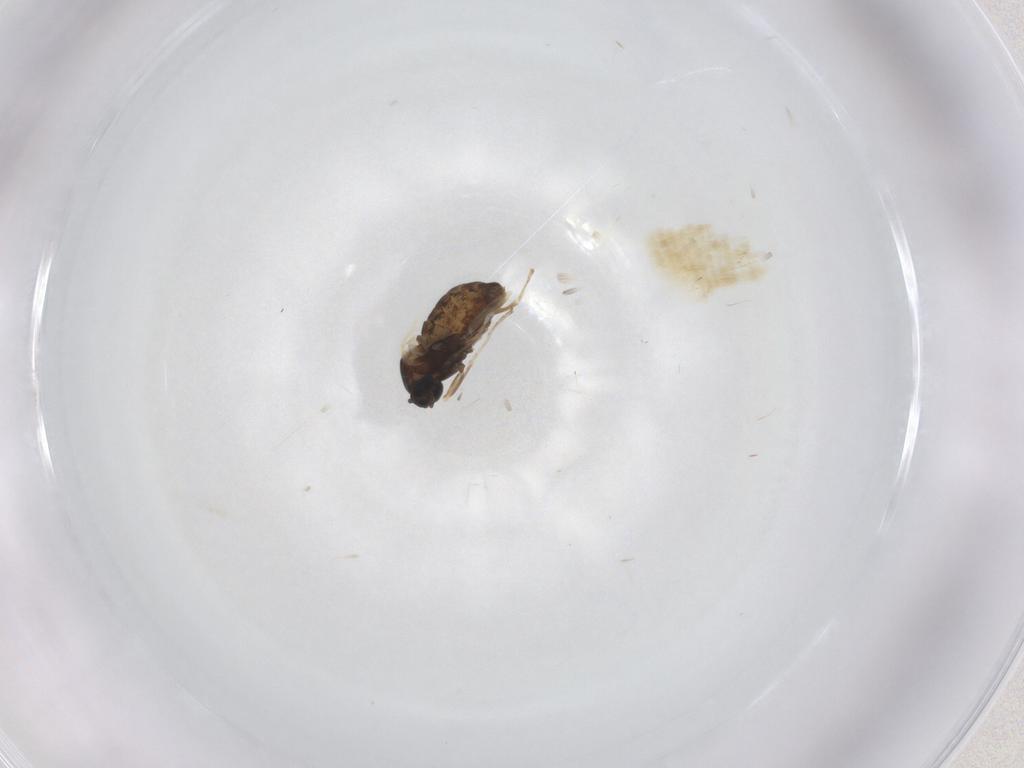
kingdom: Animalia
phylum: Arthropoda
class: Insecta
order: Diptera
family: Cecidomyiidae
